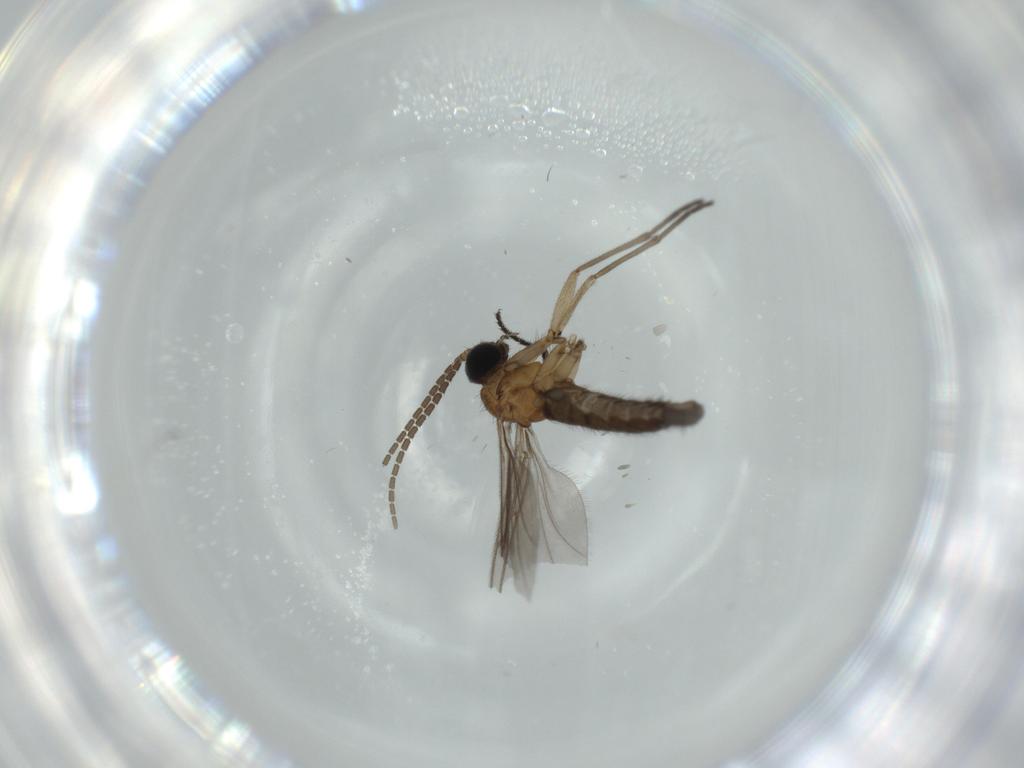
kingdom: Animalia
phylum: Arthropoda
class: Insecta
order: Diptera
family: Sciaridae
